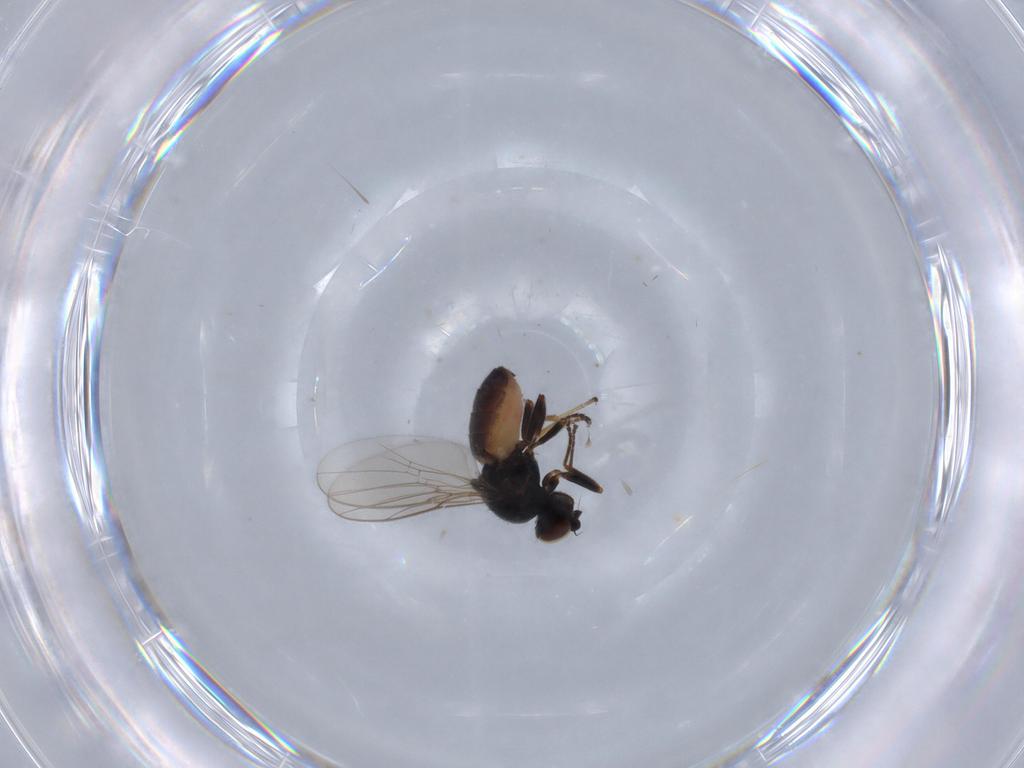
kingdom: Animalia
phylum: Arthropoda
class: Insecta
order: Diptera
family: Chloropidae
